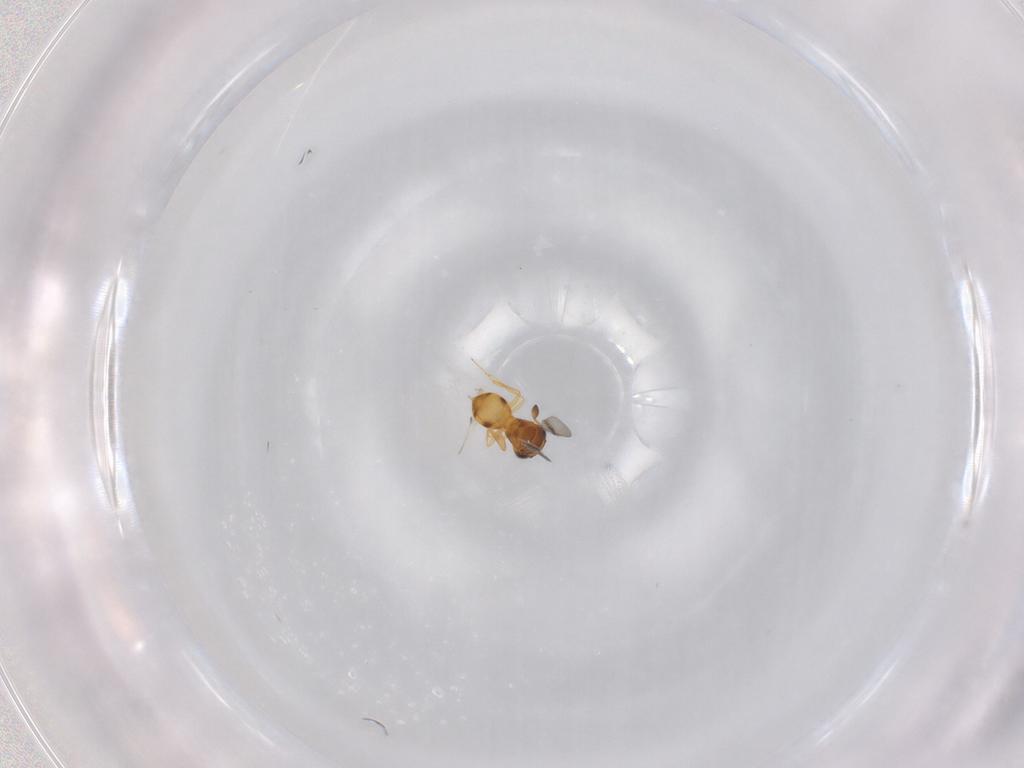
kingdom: Animalia
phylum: Arthropoda
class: Insecta
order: Hymenoptera
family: Scelionidae
